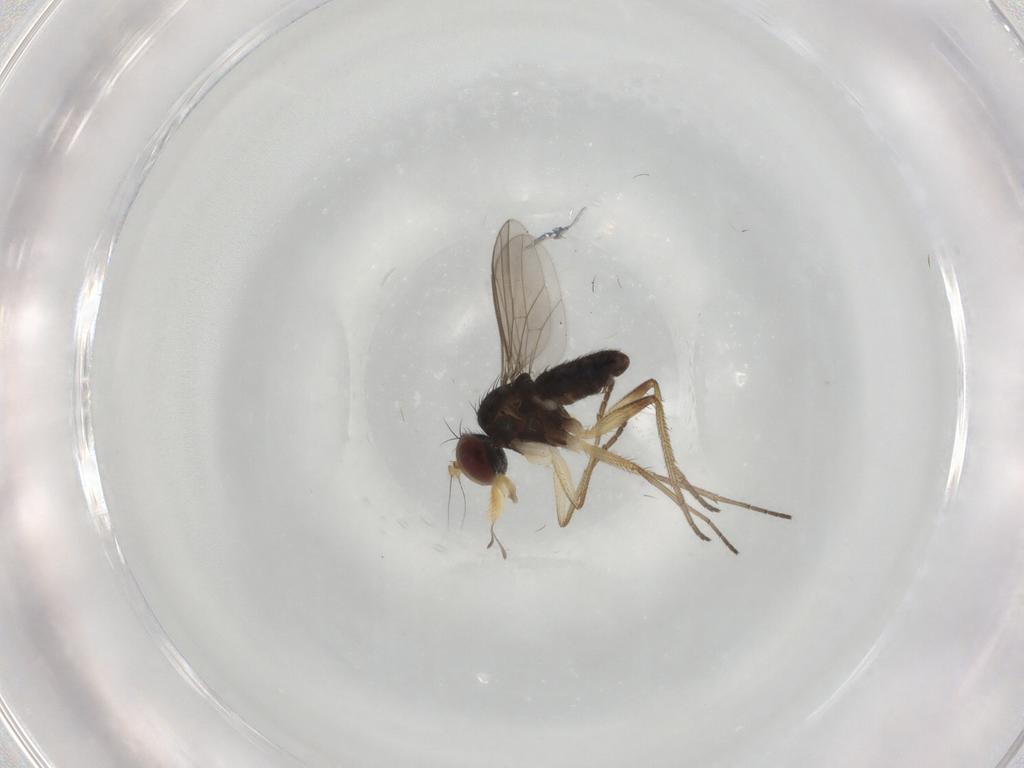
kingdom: Animalia
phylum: Arthropoda
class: Insecta
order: Diptera
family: Dolichopodidae
